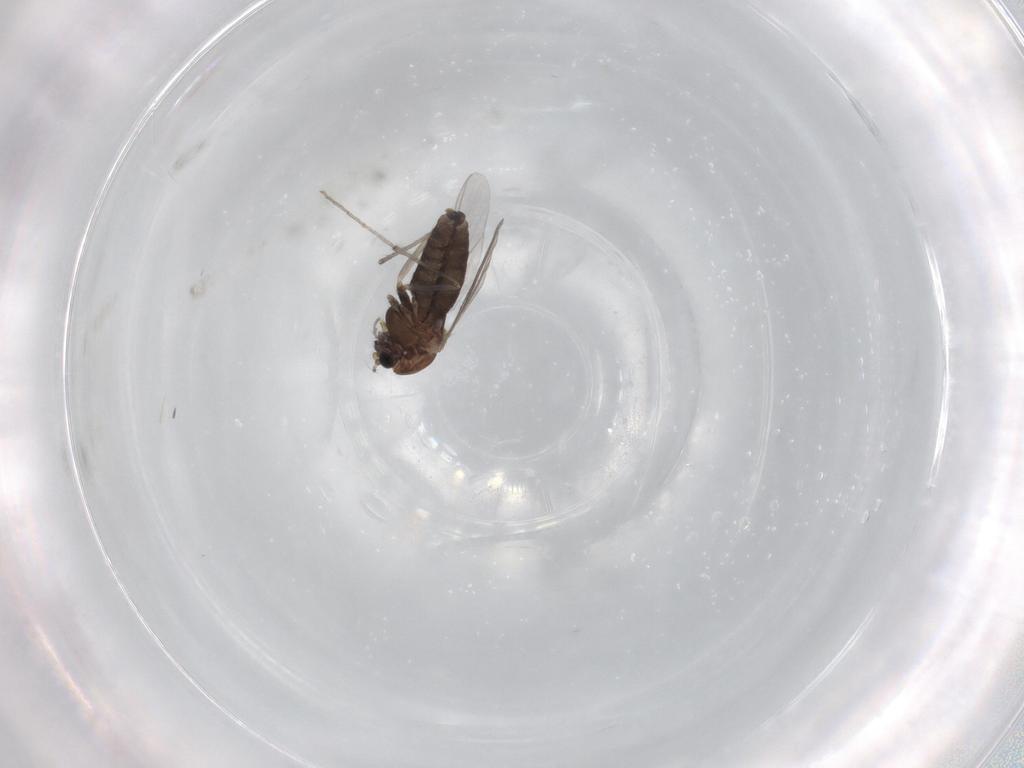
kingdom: Animalia
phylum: Arthropoda
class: Insecta
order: Diptera
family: Chironomidae
